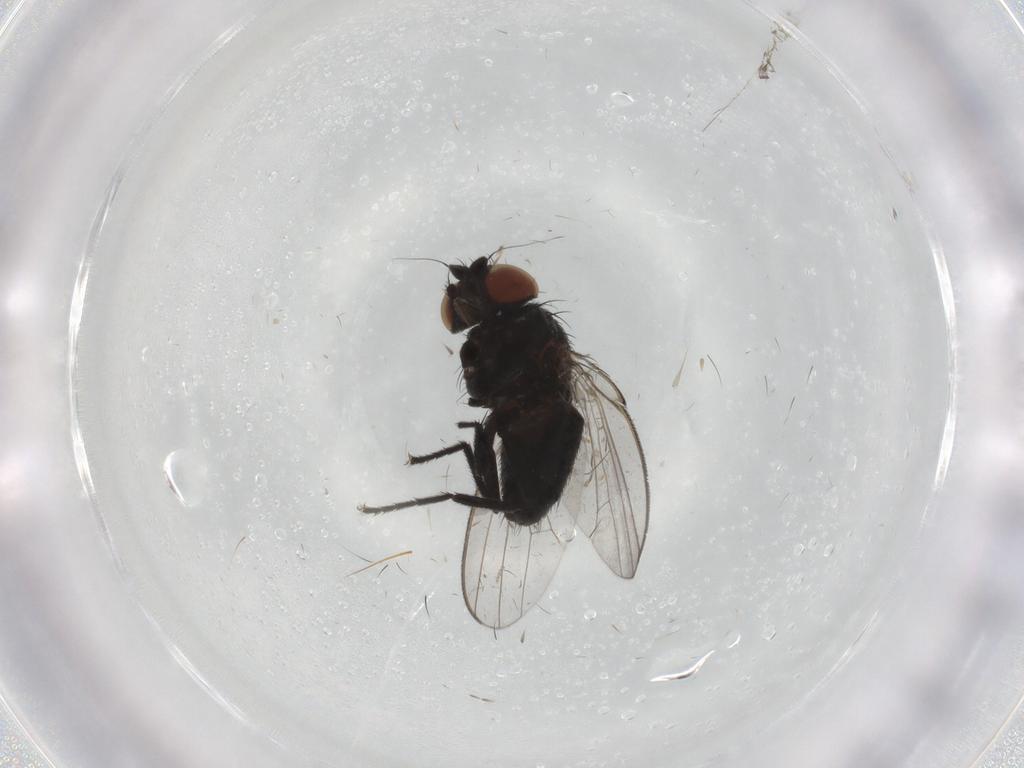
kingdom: Animalia
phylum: Arthropoda
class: Insecta
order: Diptera
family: Milichiidae
